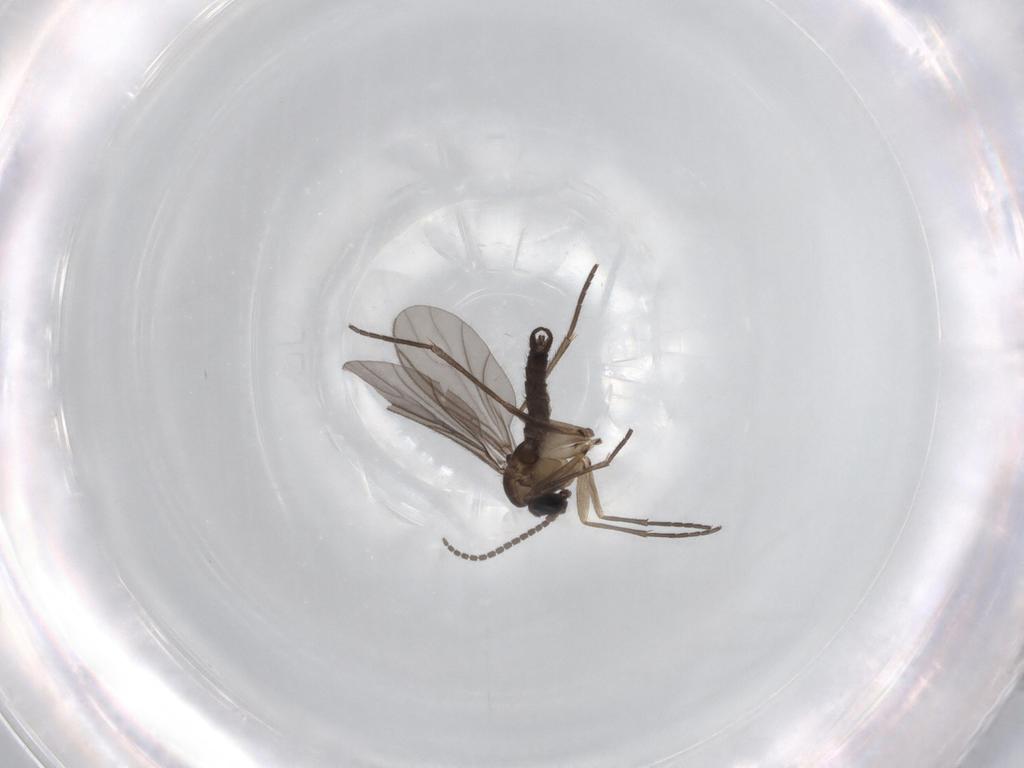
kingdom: Animalia
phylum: Arthropoda
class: Insecta
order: Diptera
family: Sciaridae
